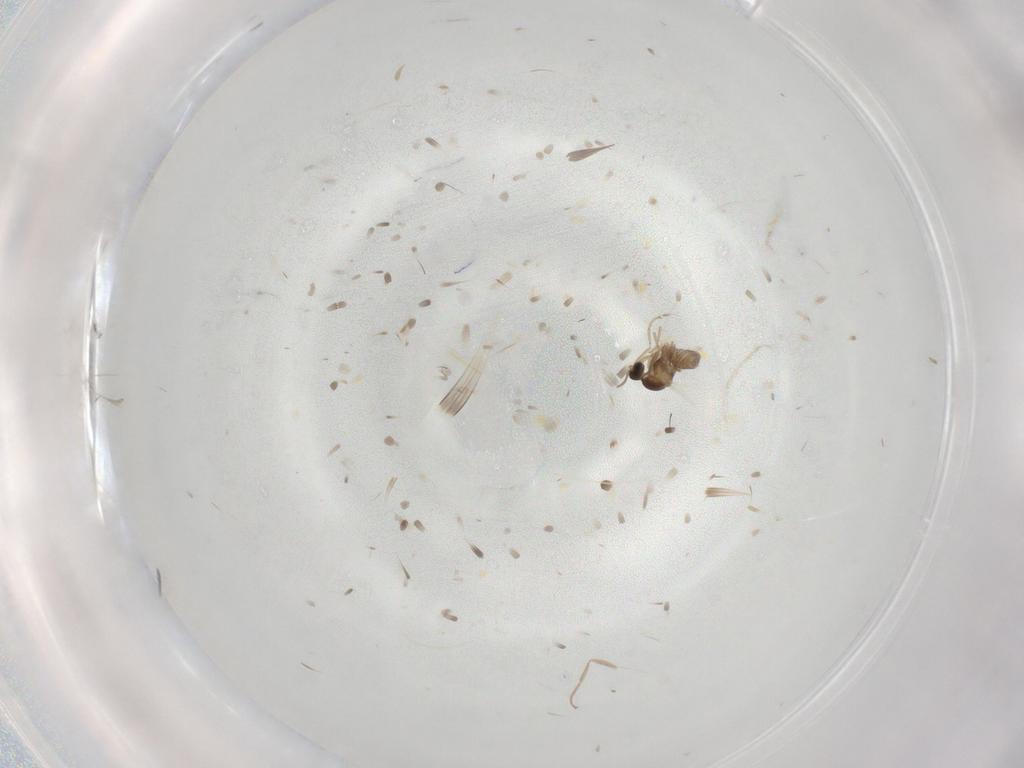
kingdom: Animalia
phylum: Arthropoda
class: Insecta
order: Diptera
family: Cecidomyiidae
